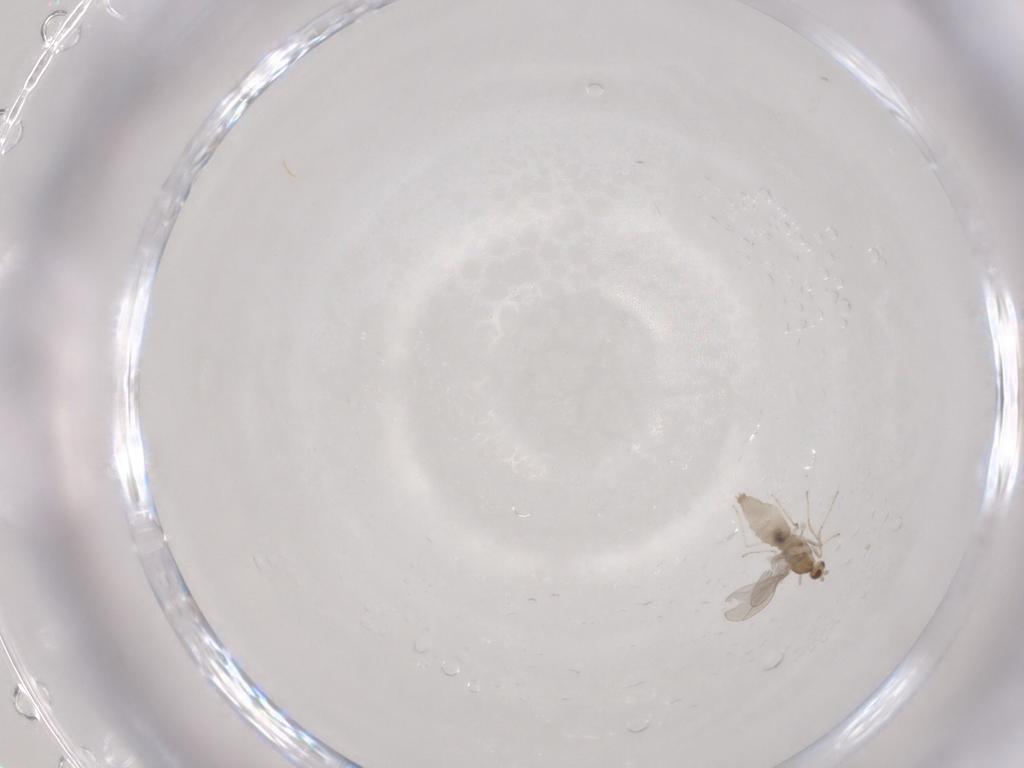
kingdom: Animalia
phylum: Arthropoda
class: Insecta
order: Diptera
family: Cecidomyiidae
